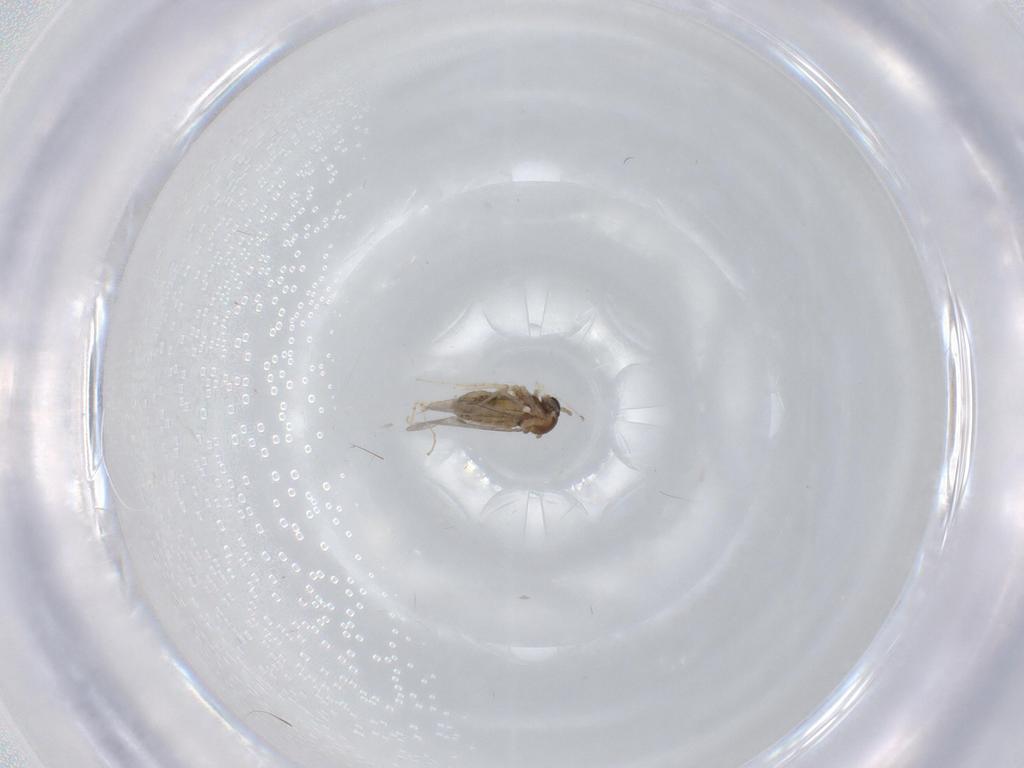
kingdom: Animalia
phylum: Arthropoda
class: Insecta
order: Diptera
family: Cecidomyiidae
